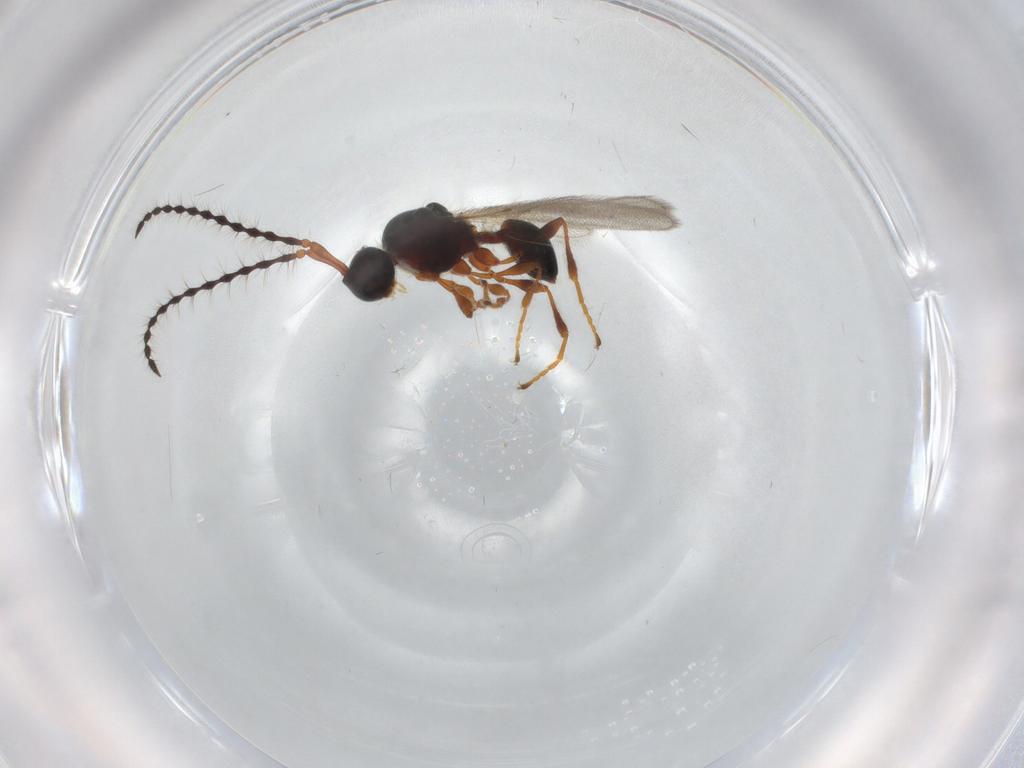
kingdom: Animalia
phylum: Arthropoda
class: Insecta
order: Hymenoptera
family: Diapriidae
